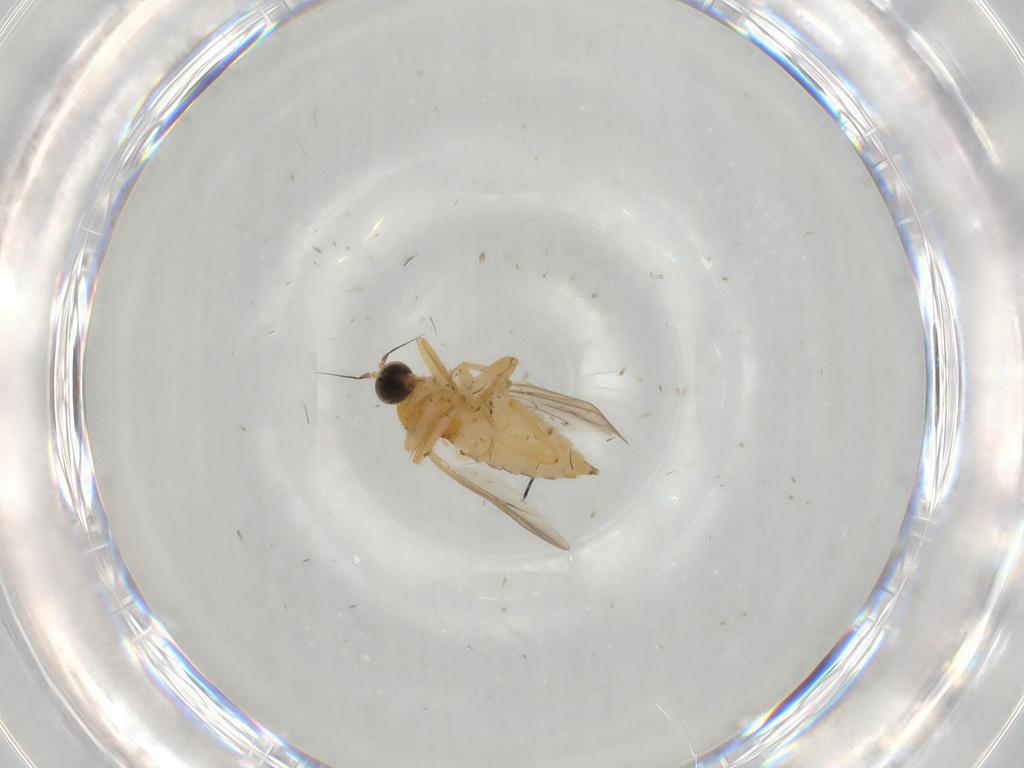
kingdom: Animalia
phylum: Arthropoda
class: Insecta
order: Diptera
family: Hybotidae
